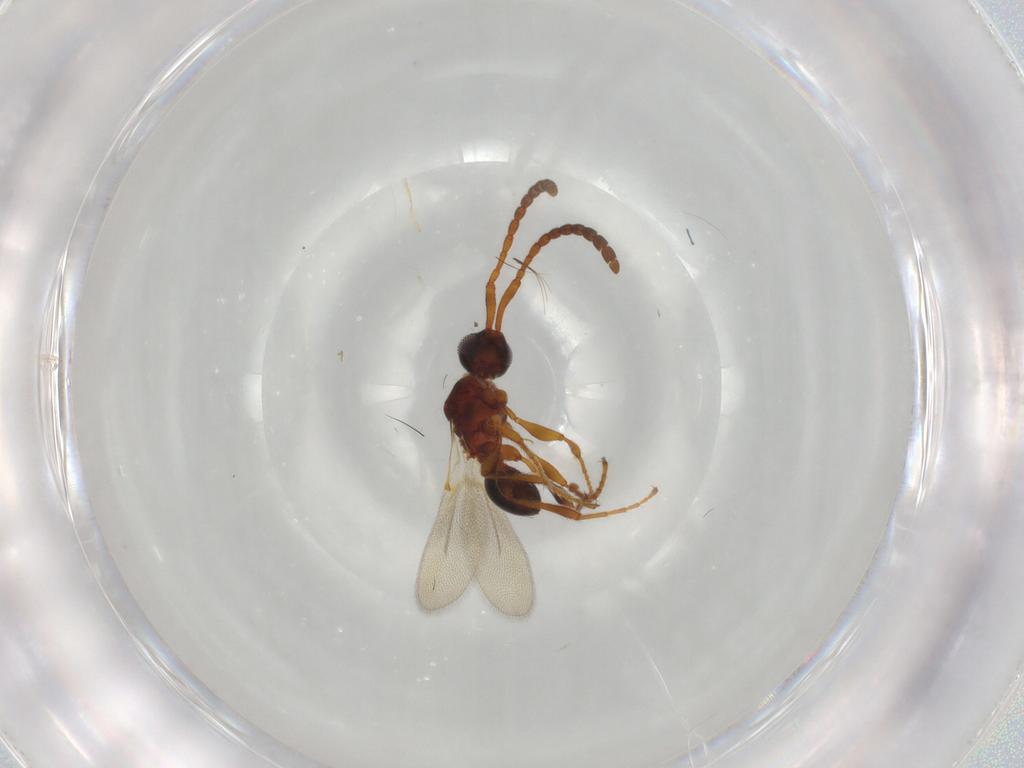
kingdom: Animalia
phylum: Arthropoda
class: Insecta
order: Hymenoptera
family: Diapriidae
